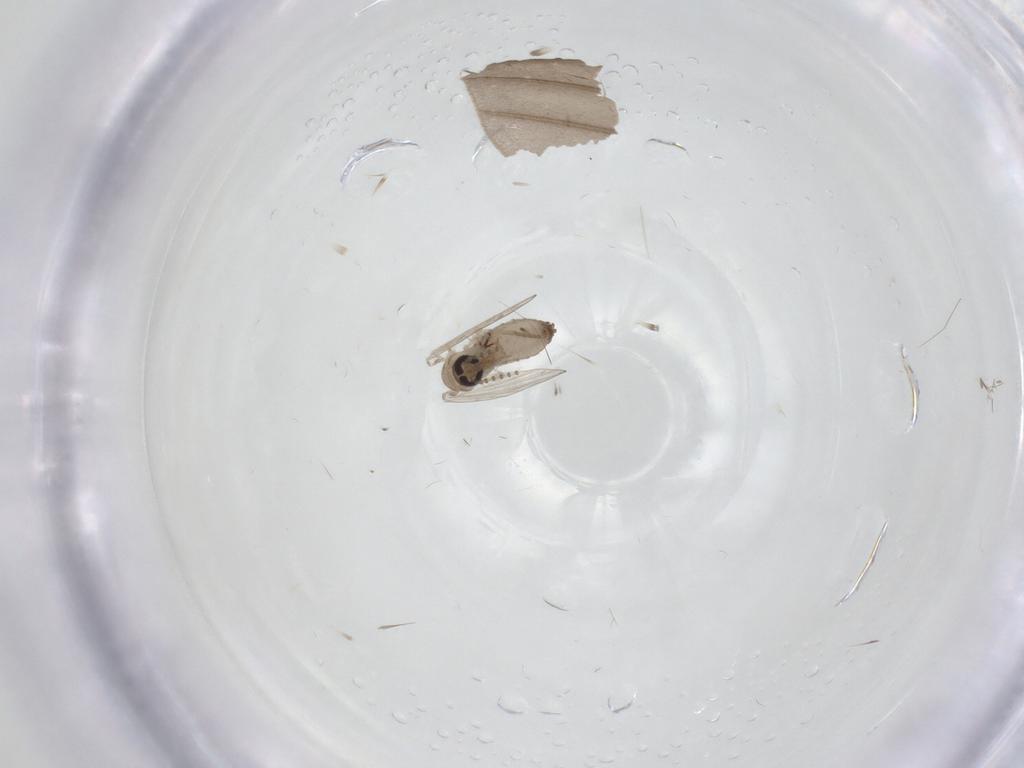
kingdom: Animalia
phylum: Arthropoda
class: Insecta
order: Diptera
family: Psychodidae
